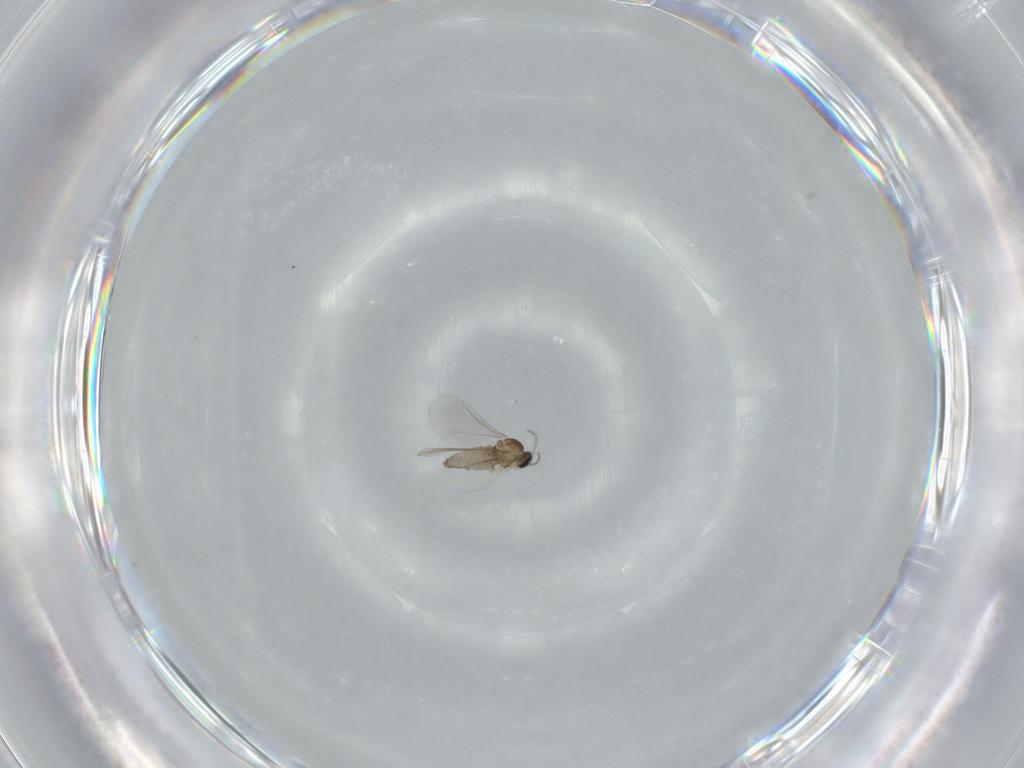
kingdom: Animalia
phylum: Arthropoda
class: Insecta
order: Diptera
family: Cecidomyiidae
